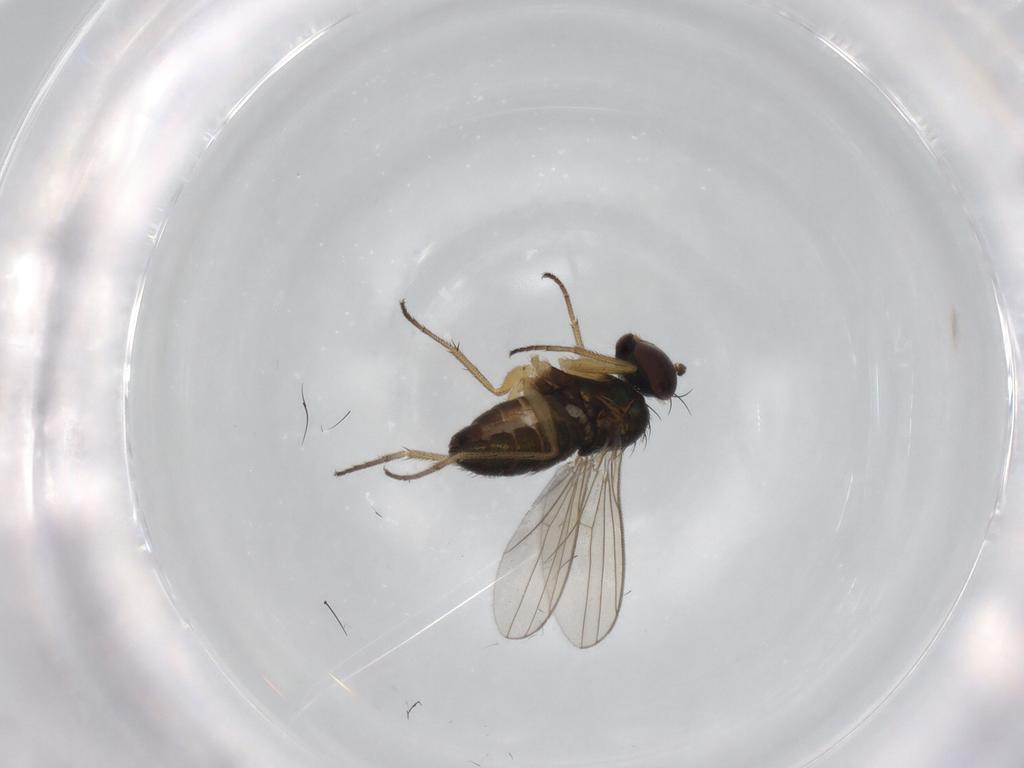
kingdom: Animalia
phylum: Arthropoda
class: Insecta
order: Diptera
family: Dolichopodidae
